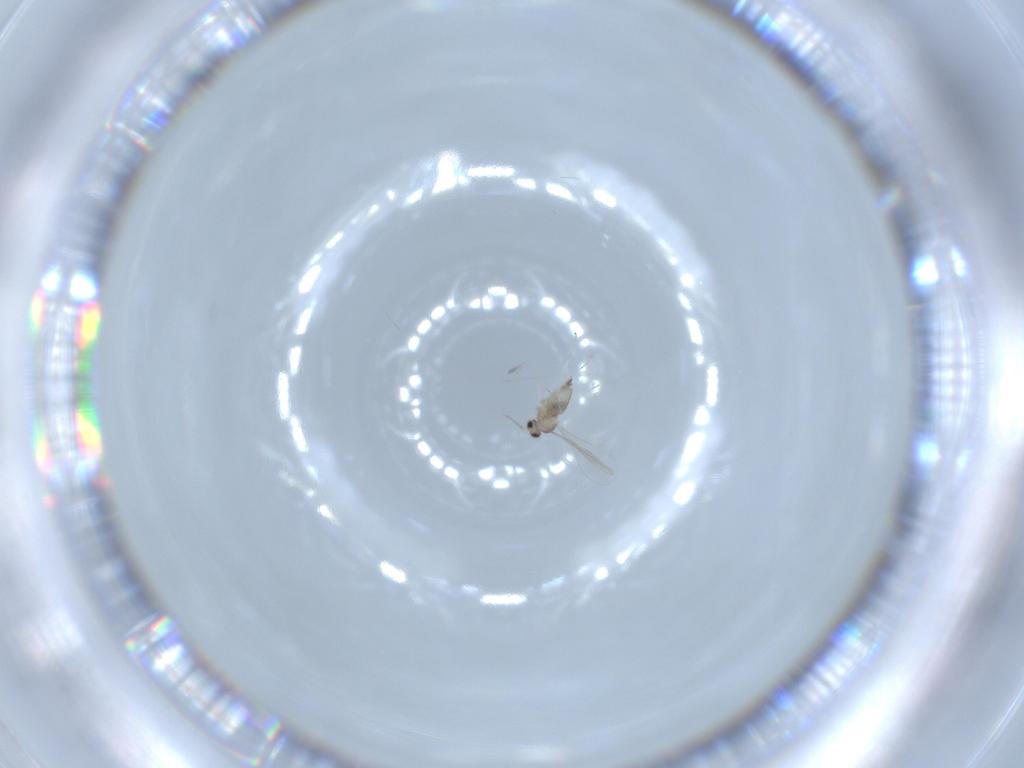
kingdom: Animalia
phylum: Arthropoda
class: Insecta
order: Diptera
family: Cecidomyiidae
